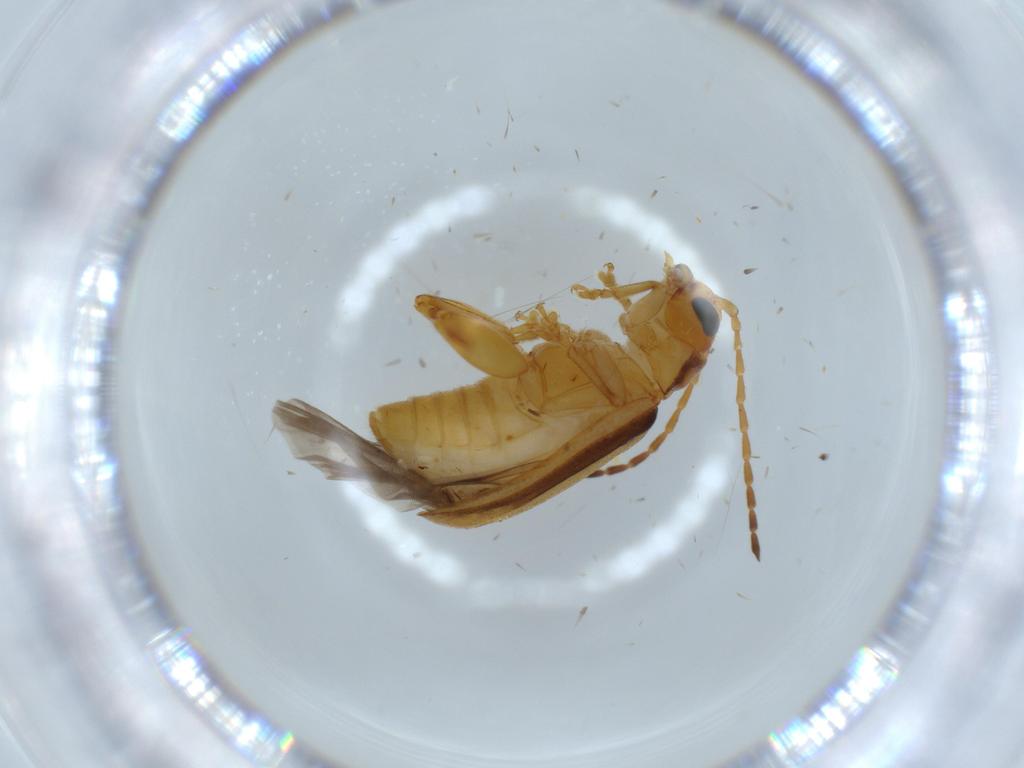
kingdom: Animalia
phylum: Arthropoda
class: Insecta
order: Coleoptera
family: Chrysomelidae
